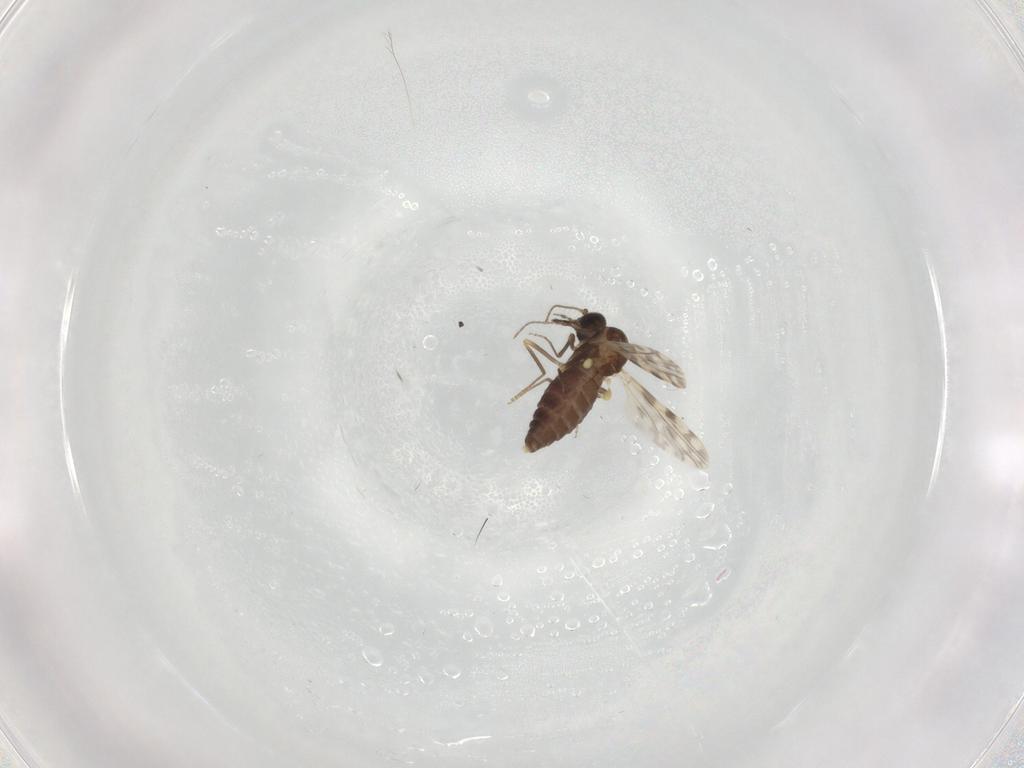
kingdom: Animalia
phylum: Arthropoda
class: Insecta
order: Diptera
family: Ceratopogonidae
